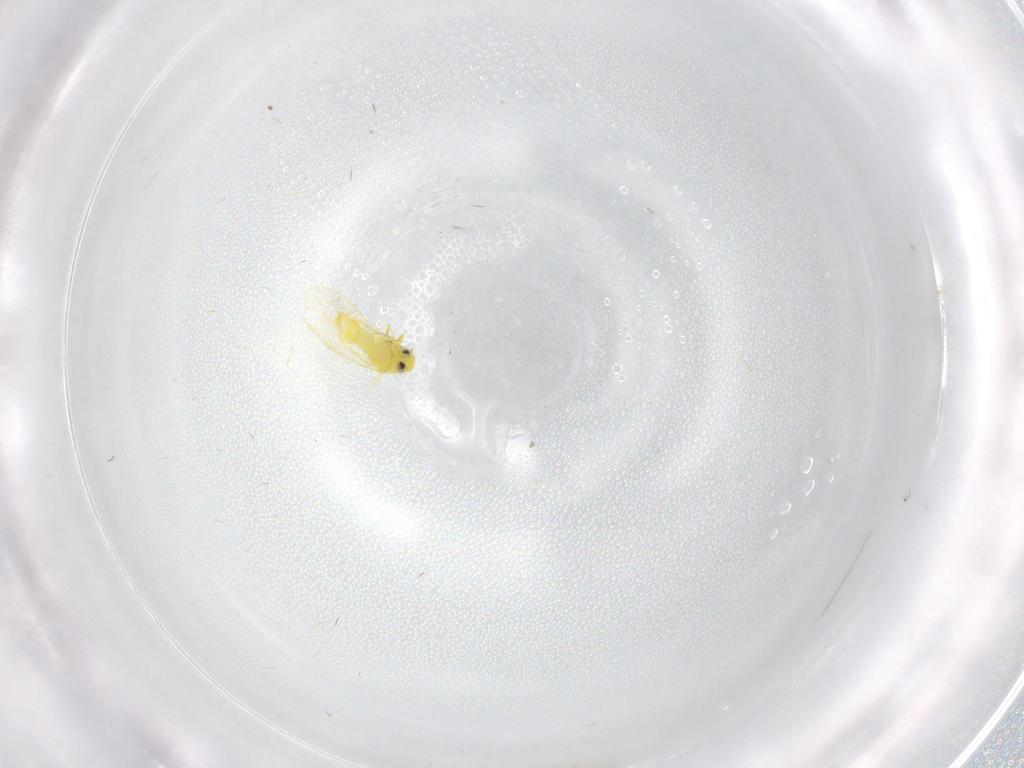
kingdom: Animalia
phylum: Arthropoda
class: Insecta
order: Hemiptera
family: Aleyrodidae
